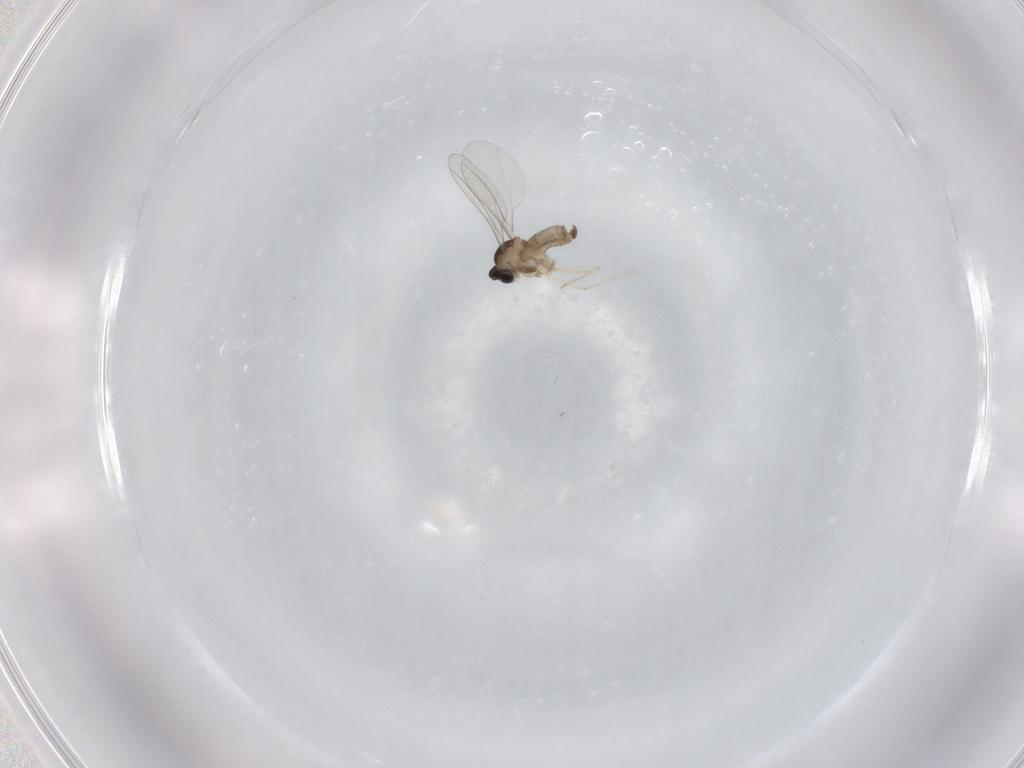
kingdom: Animalia
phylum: Arthropoda
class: Insecta
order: Diptera
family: Cecidomyiidae
